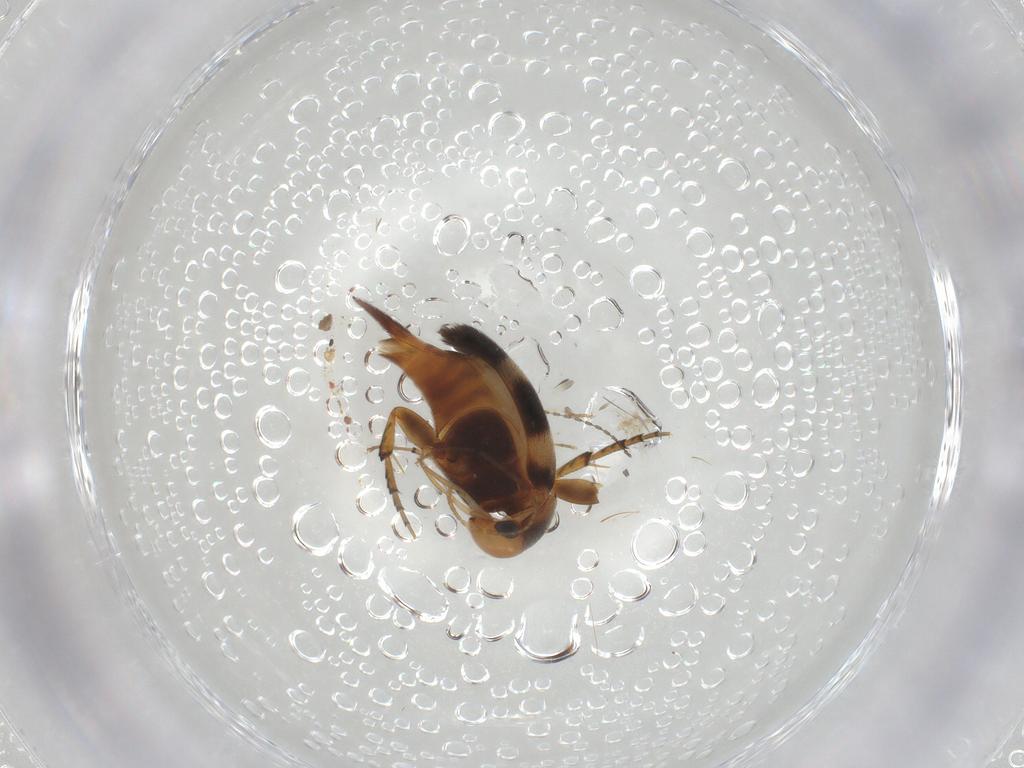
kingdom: Animalia
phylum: Arthropoda
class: Insecta
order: Coleoptera
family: Mordellidae
